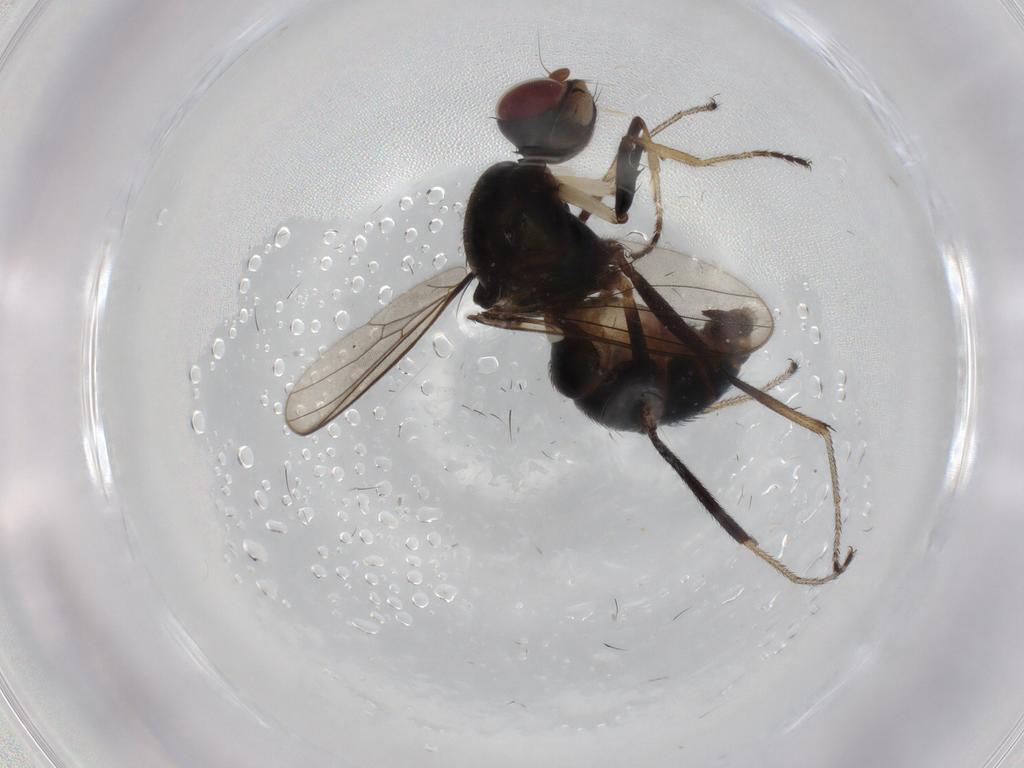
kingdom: Animalia
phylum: Arthropoda
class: Insecta
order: Diptera
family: Sepsidae
